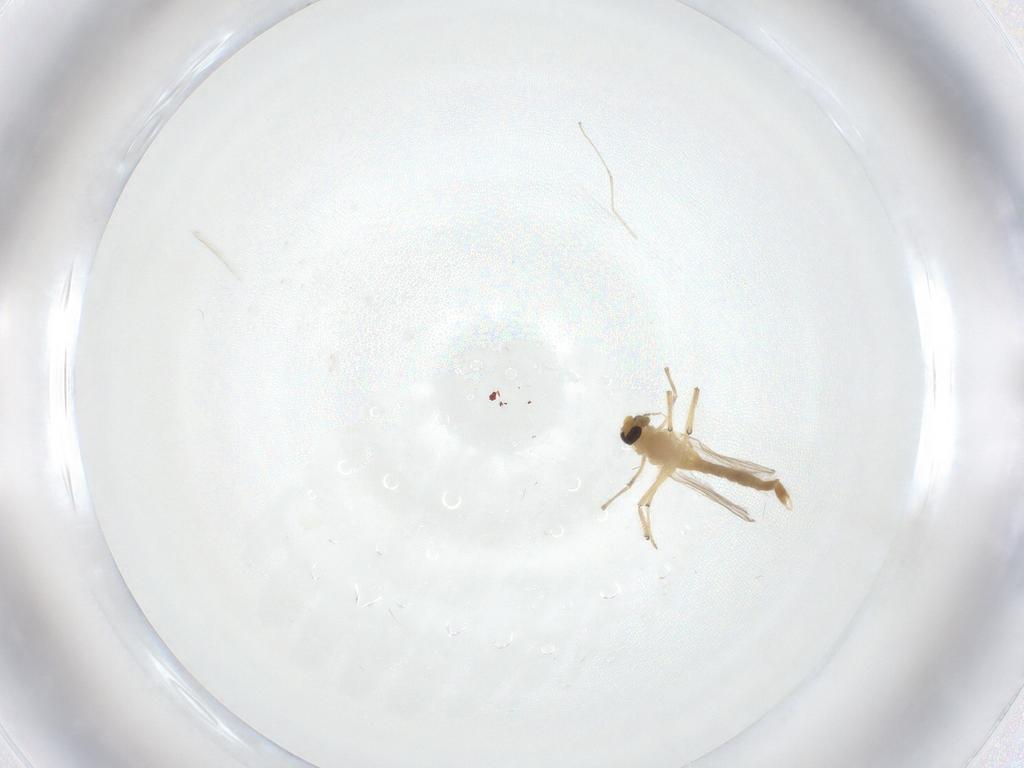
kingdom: Animalia
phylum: Arthropoda
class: Insecta
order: Diptera
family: Chironomidae
